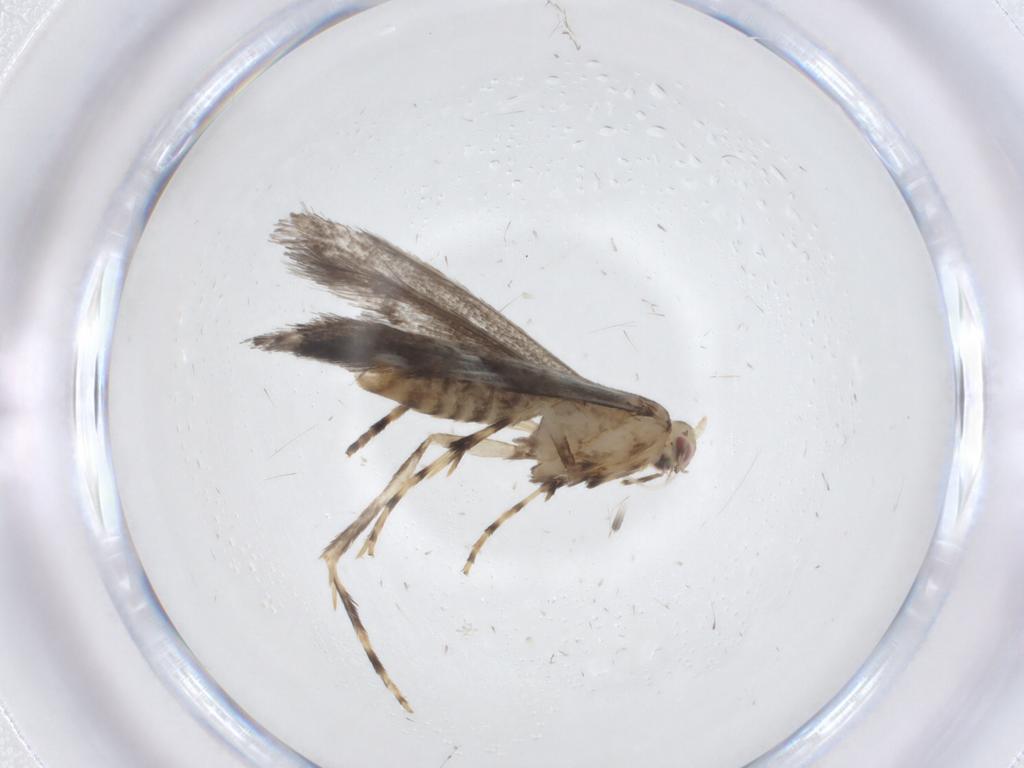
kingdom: Animalia
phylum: Arthropoda
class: Insecta
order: Lepidoptera
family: Gracillariidae
